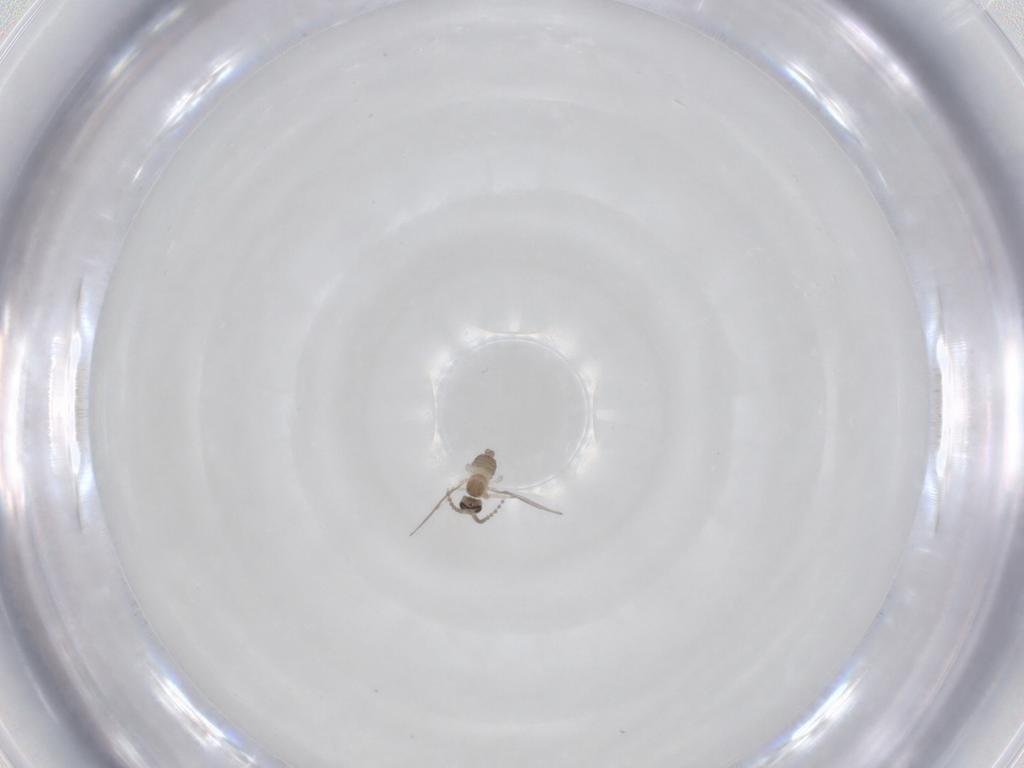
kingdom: Animalia
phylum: Arthropoda
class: Insecta
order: Diptera
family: Cecidomyiidae
